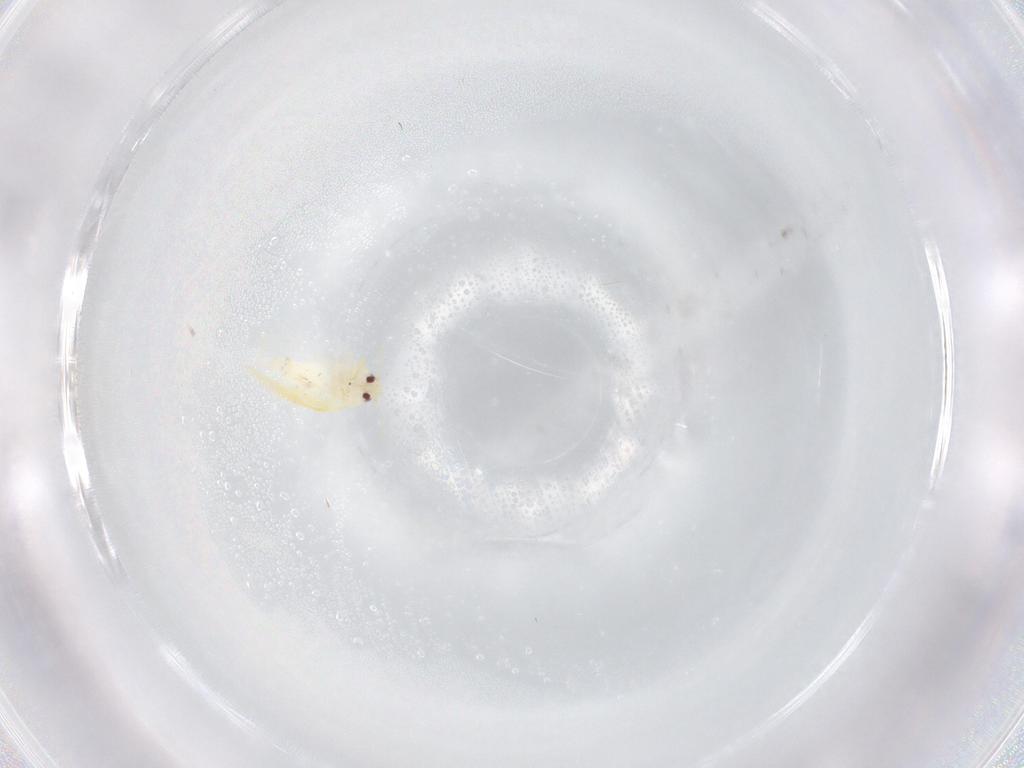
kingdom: Animalia
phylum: Arthropoda
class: Insecta
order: Hemiptera
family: Aleyrodidae
